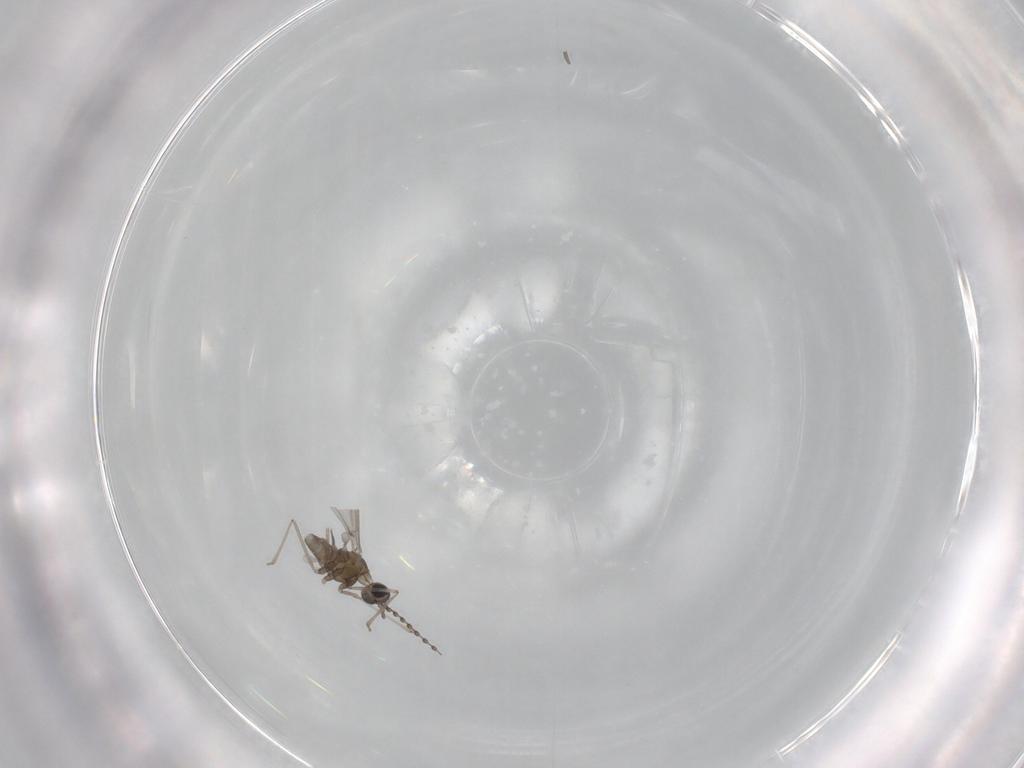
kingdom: Animalia
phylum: Arthropoda
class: Insecta
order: Diptera
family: Cecidomyiidae
